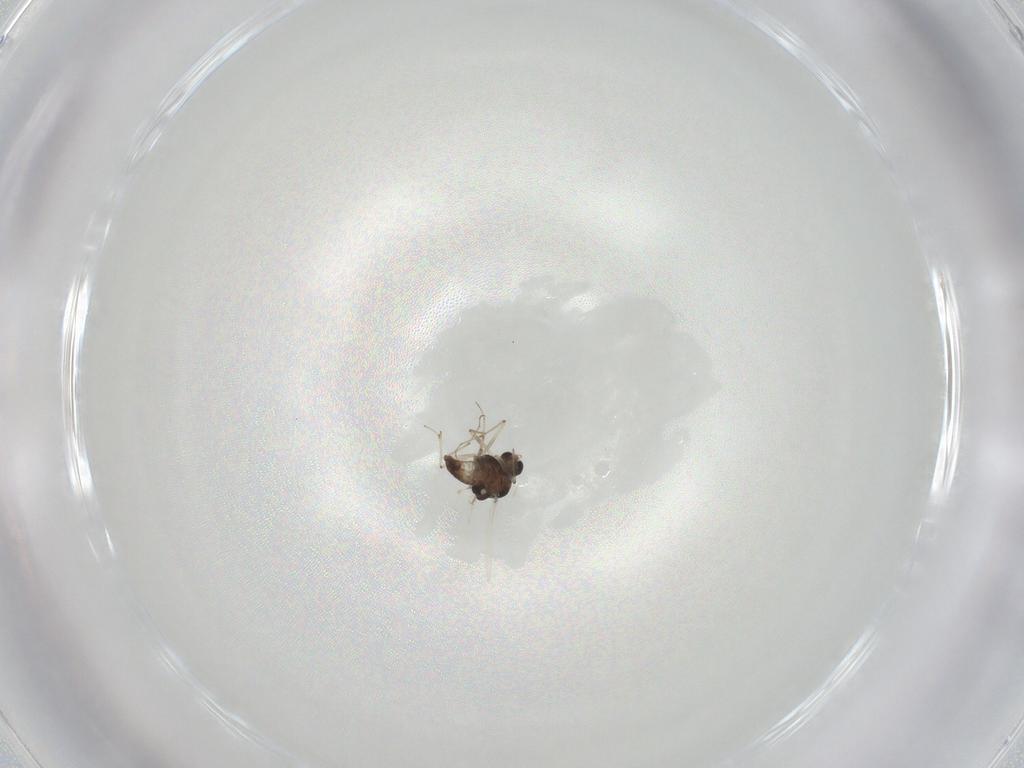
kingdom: Animalia
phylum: Arthropoda
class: Insecta
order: Diptera
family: Chironomidae
